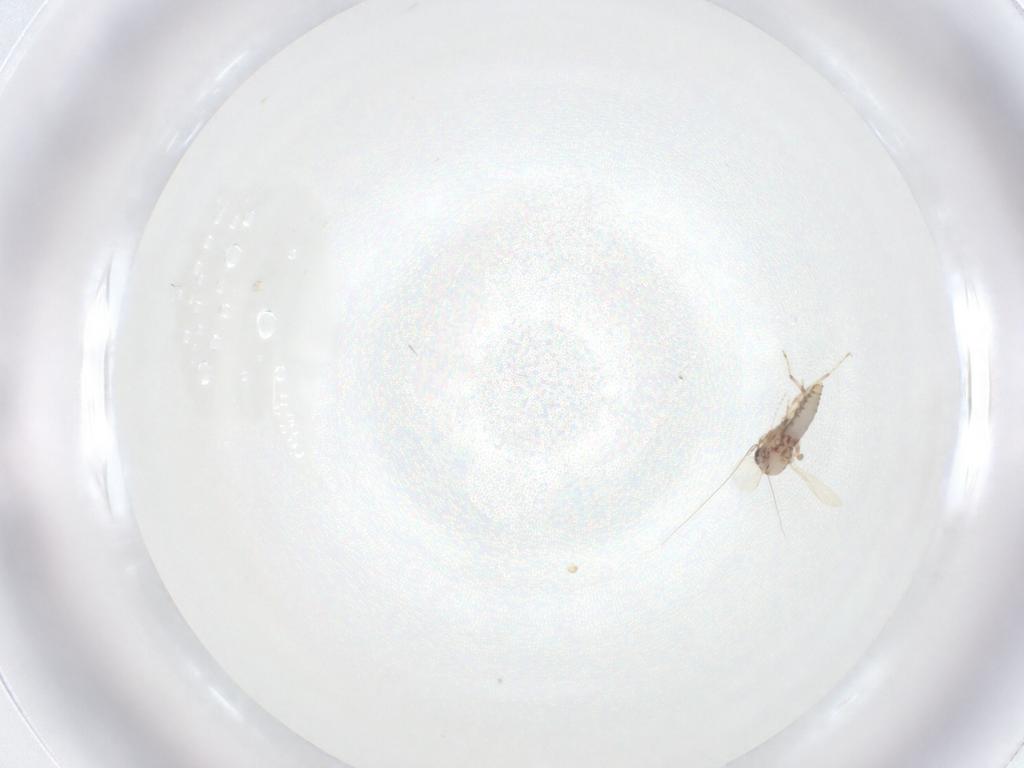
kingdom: Animalia
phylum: Arthropoda
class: Insecta
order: Diptera
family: Ceratopogonidae
